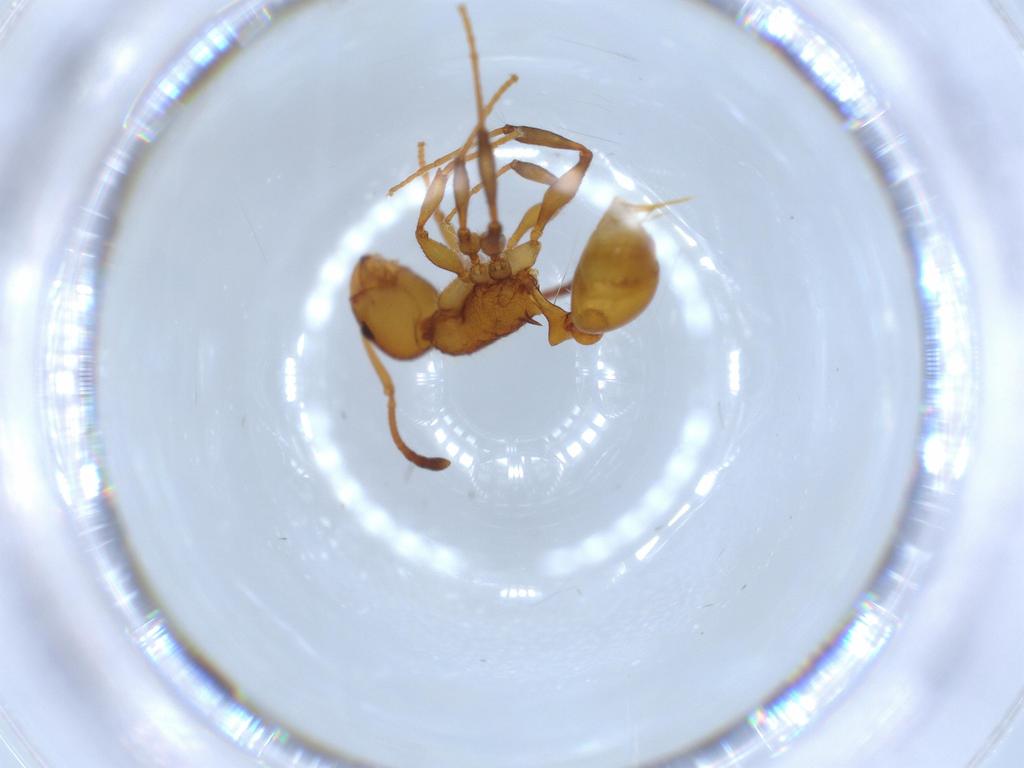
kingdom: Animalia
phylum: Arthropoda
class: Insecta
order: Hymenoptera
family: Formicidae
